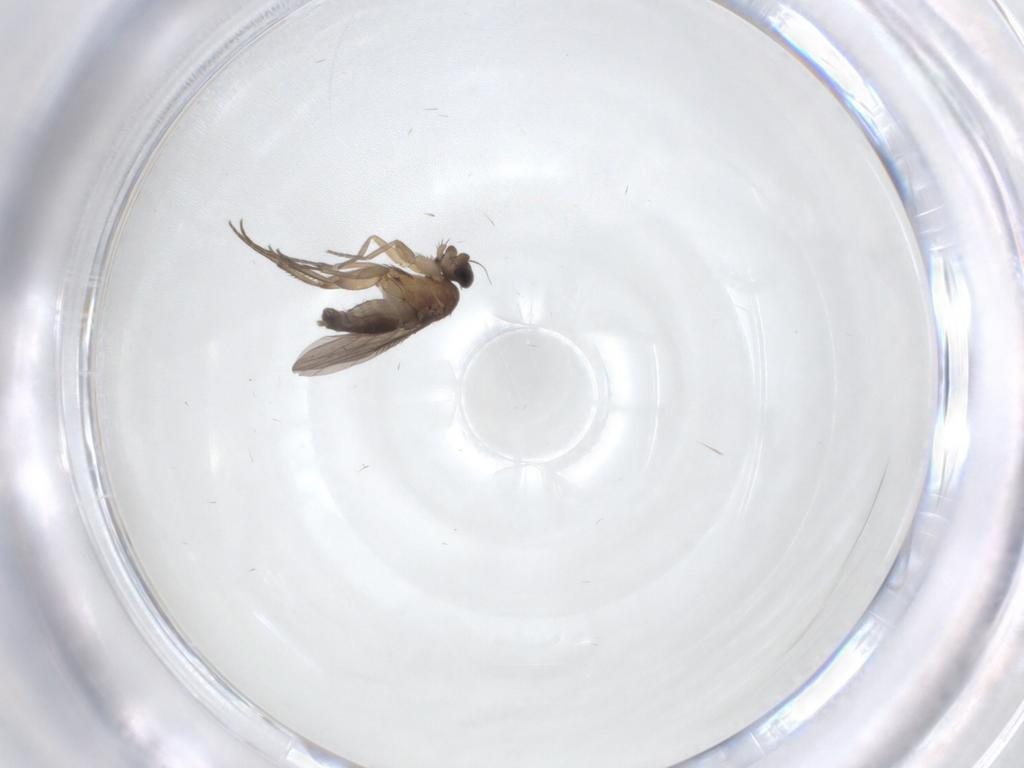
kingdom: Animalia
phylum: Arthropoda
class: Insecta
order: Diptera
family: Phoridae
